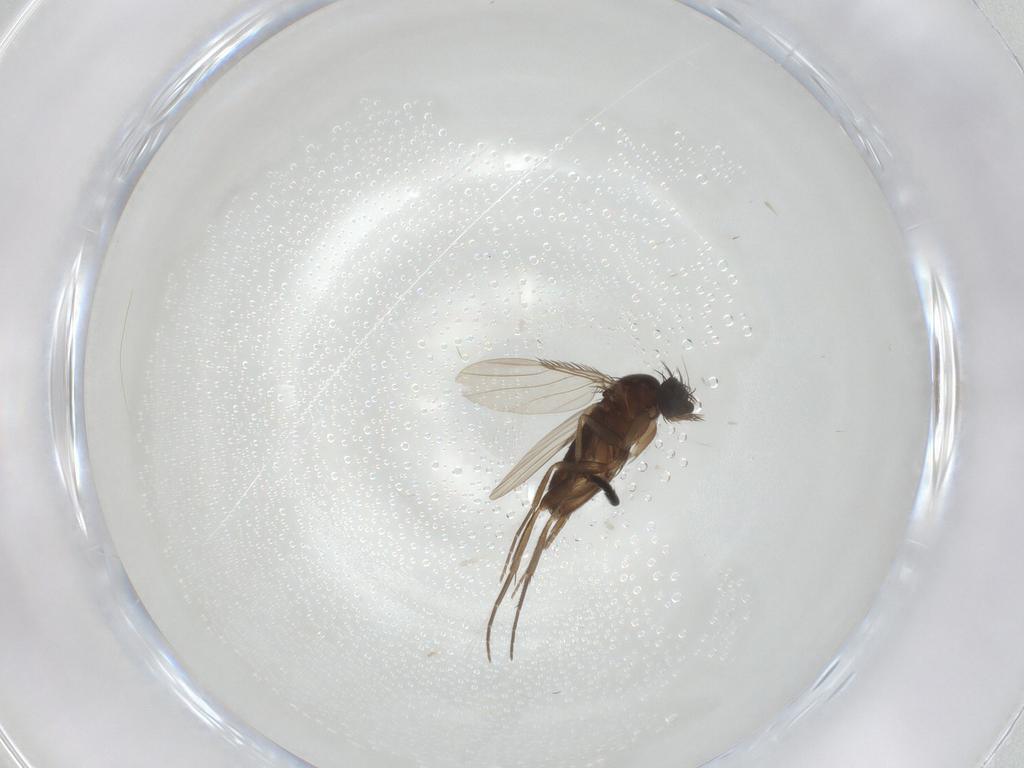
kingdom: Animalia
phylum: Arthropoda
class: Insecta
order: Diptera
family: Phoridae
